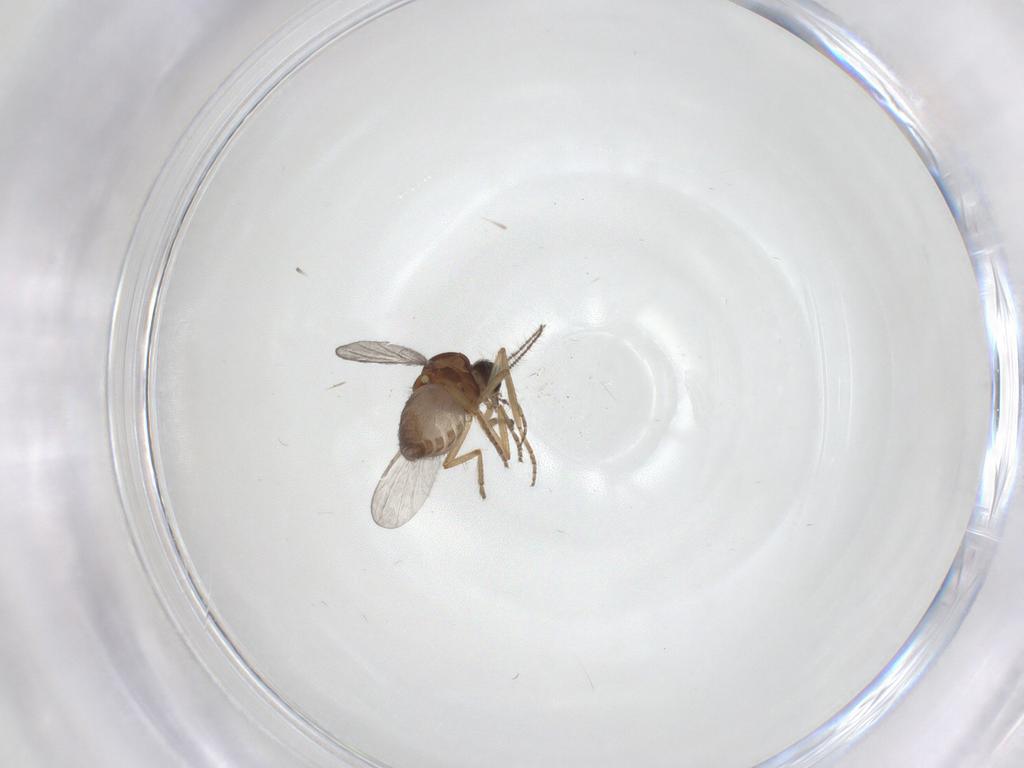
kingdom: Animalia
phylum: Arthropoda
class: Insecta
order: Diptera
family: Ceratopogonidae
